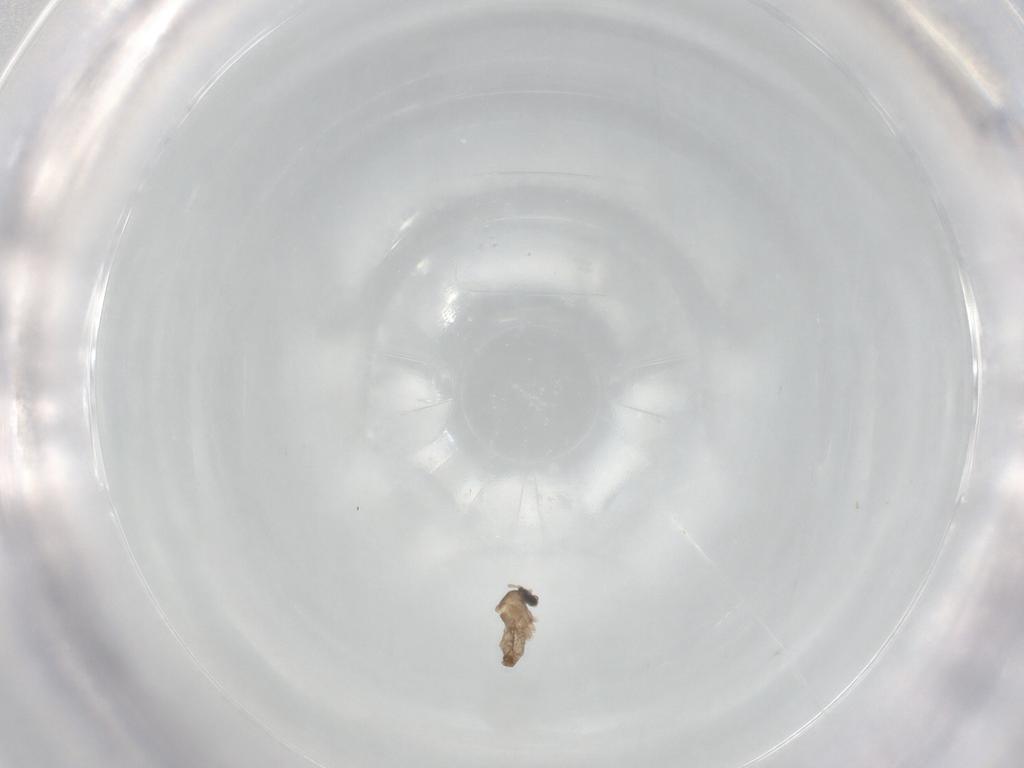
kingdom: Animalia
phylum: Arthropoda
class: Insecta
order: Diptera
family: Cecidomyiidae
